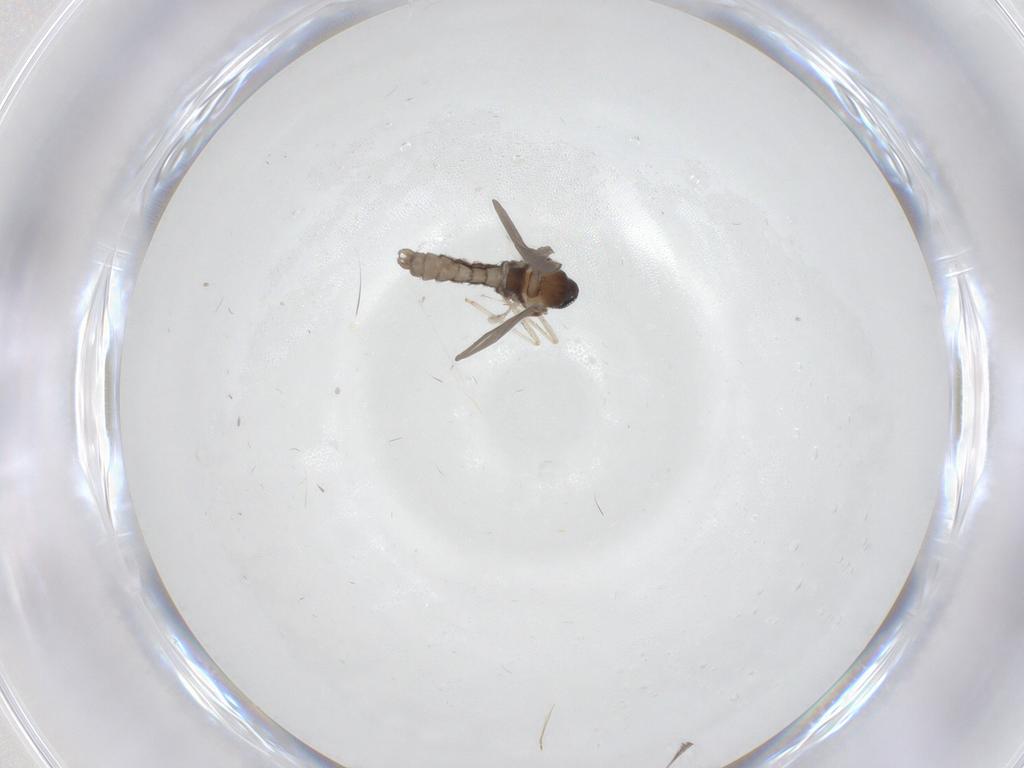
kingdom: Animalia
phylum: Arthropoda
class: Insecta
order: Diptera
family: Cecidomyiidae
